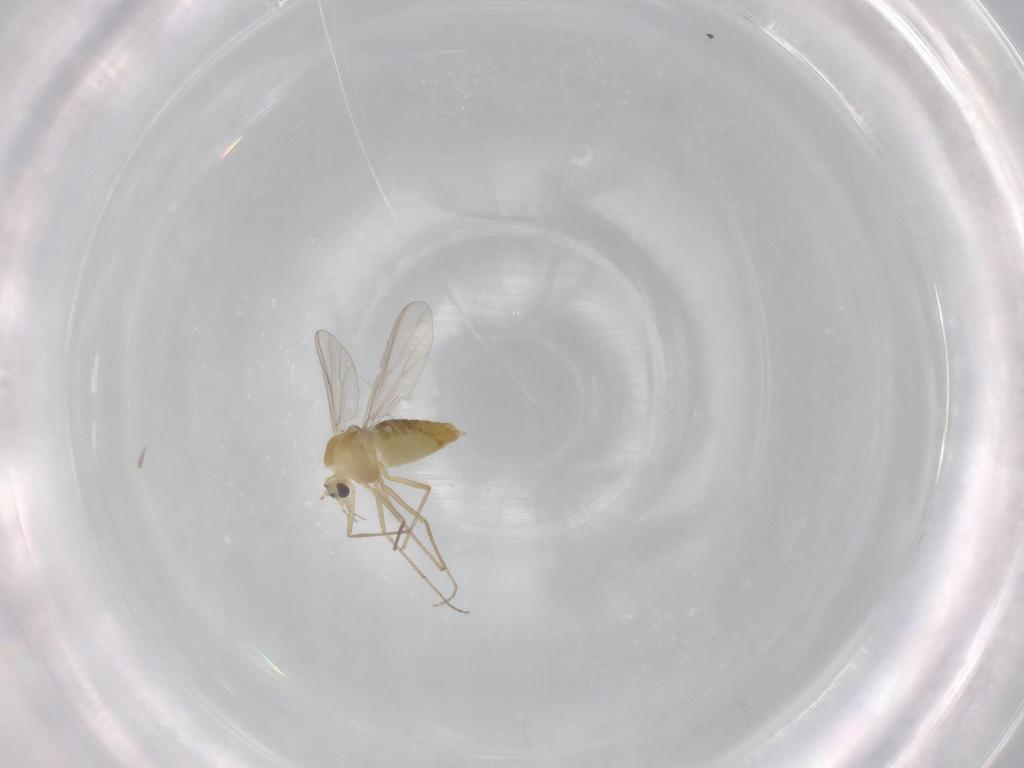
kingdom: Animalia
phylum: Arthropoda
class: Insecta
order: Diptera
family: Chironomidae
